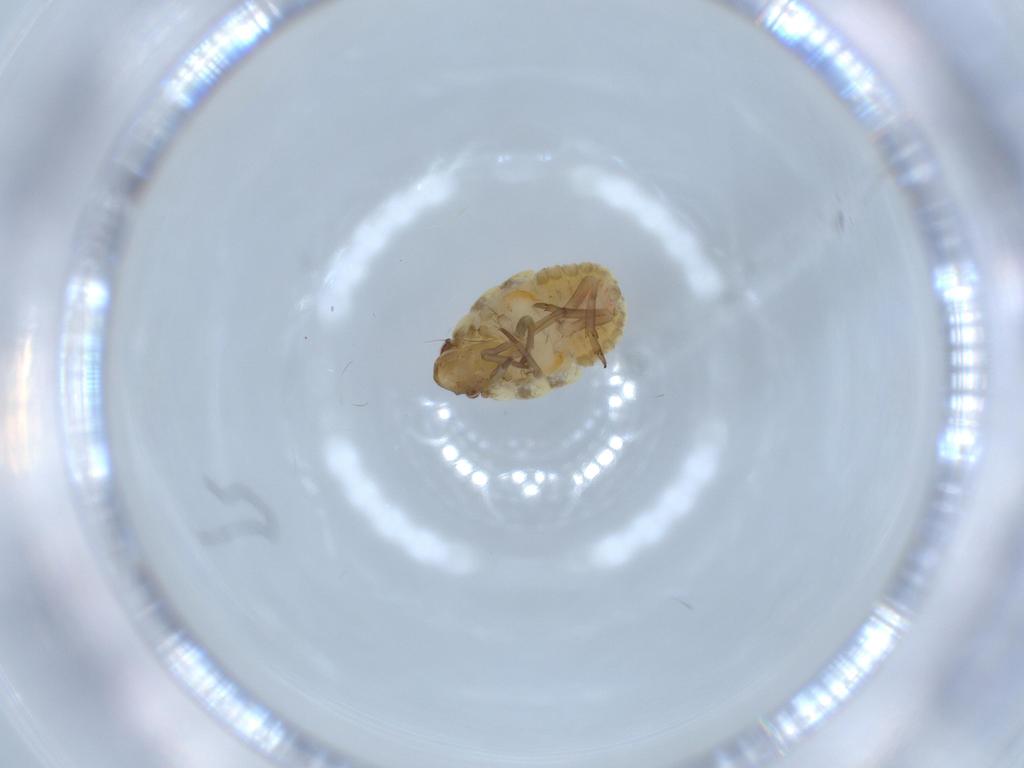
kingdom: Animalia
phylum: Arthropoda
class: Insecta
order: Hemiptera
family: Flatidae
